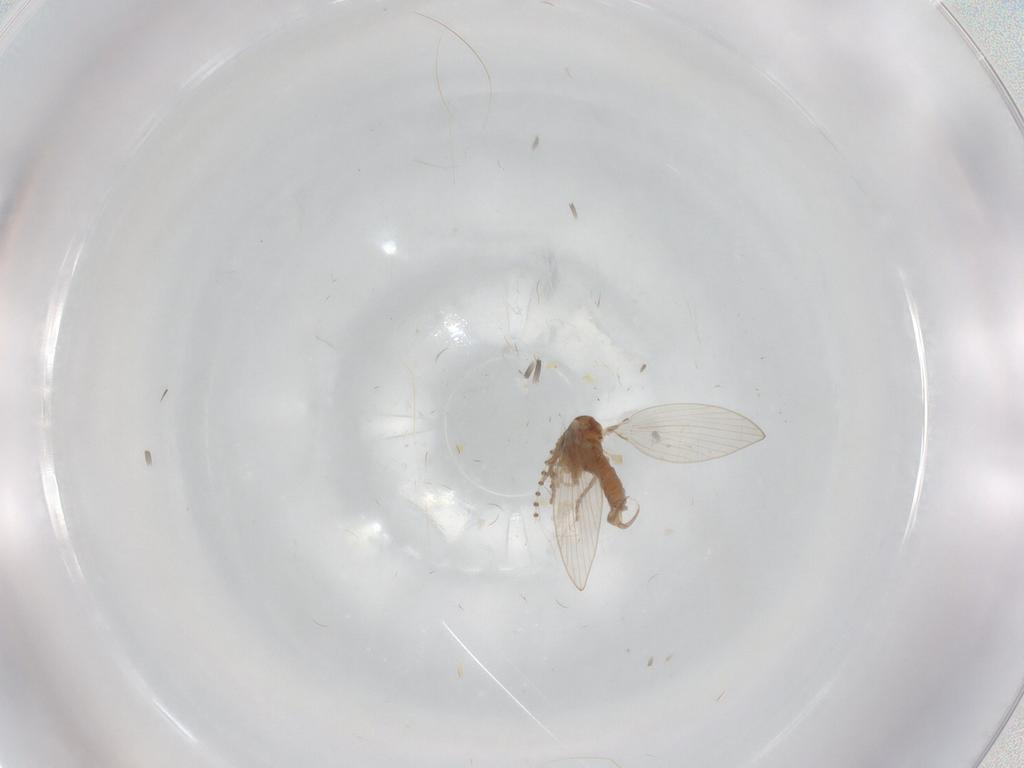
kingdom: Animalia
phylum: Arthropoda
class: Insecta
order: Diptera
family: Psychodidae
